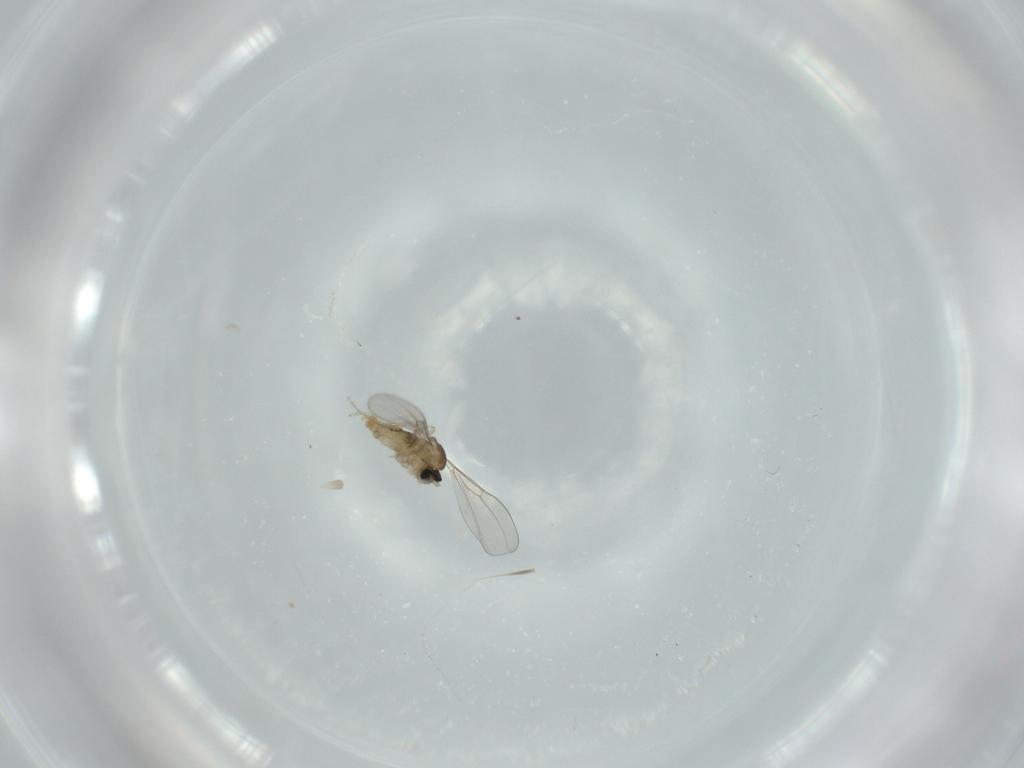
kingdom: Animalia
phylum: Arthropoda
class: Insecta
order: Diptera
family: Cecidomyiidae
